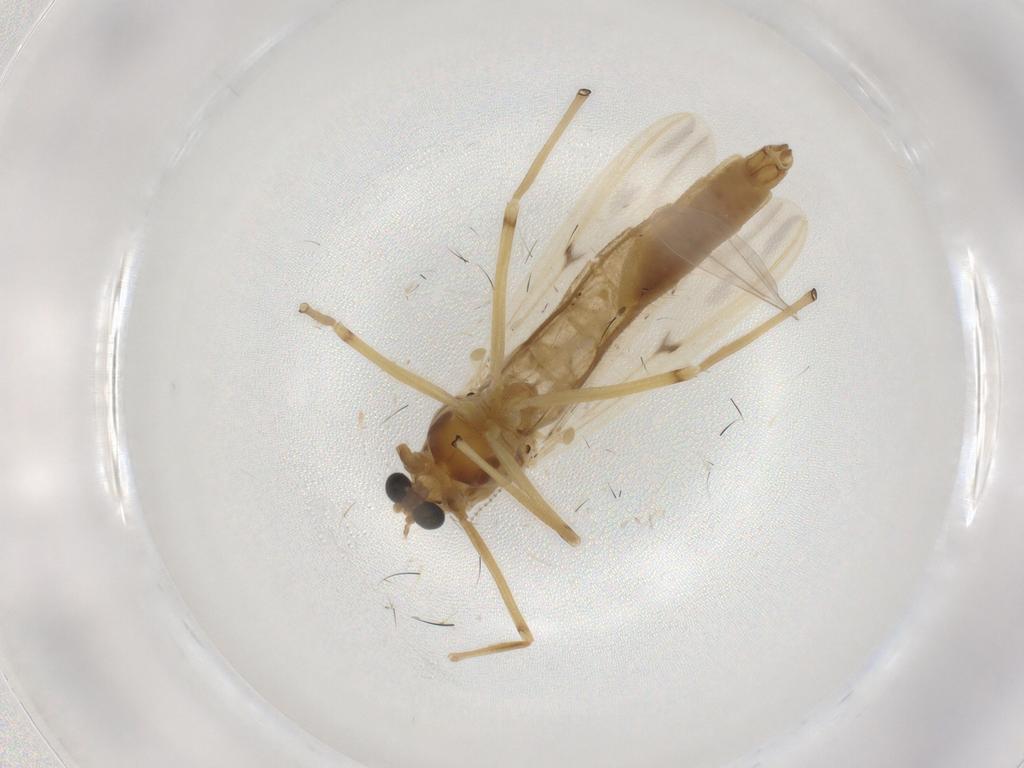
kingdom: Animalia
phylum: Arthropoda
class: Insecta
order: Diptera
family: Chironomidae
